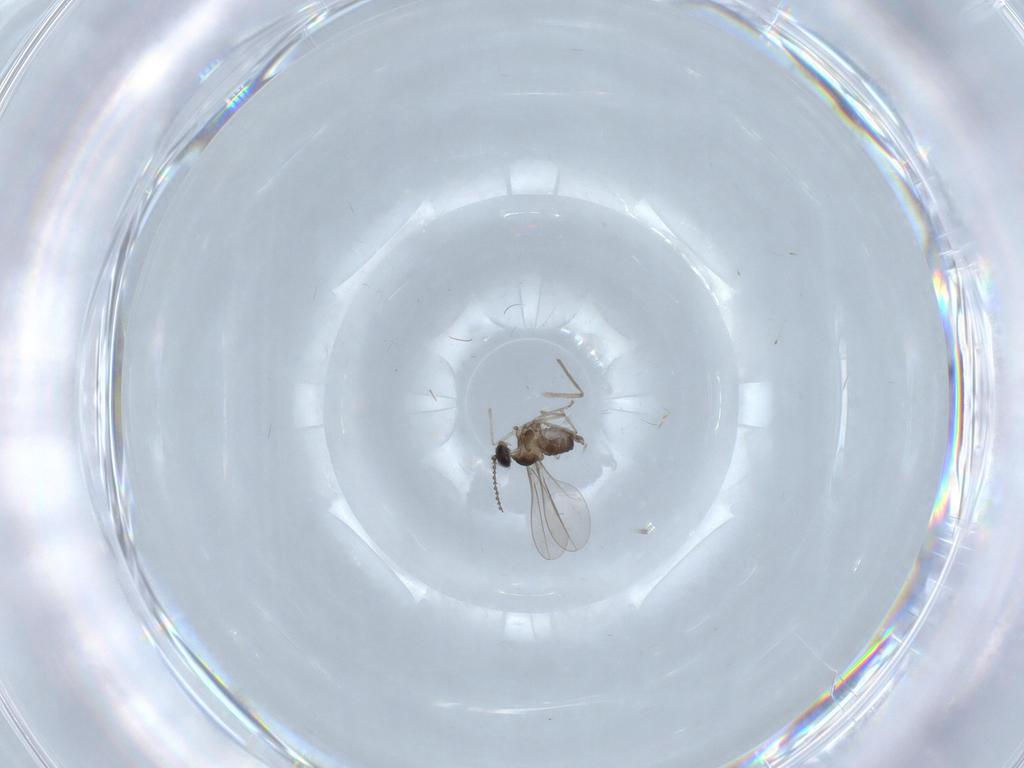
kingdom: Animalia
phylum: Arthropoda
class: Insecta
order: Diptera
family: Cecidomyiidae
